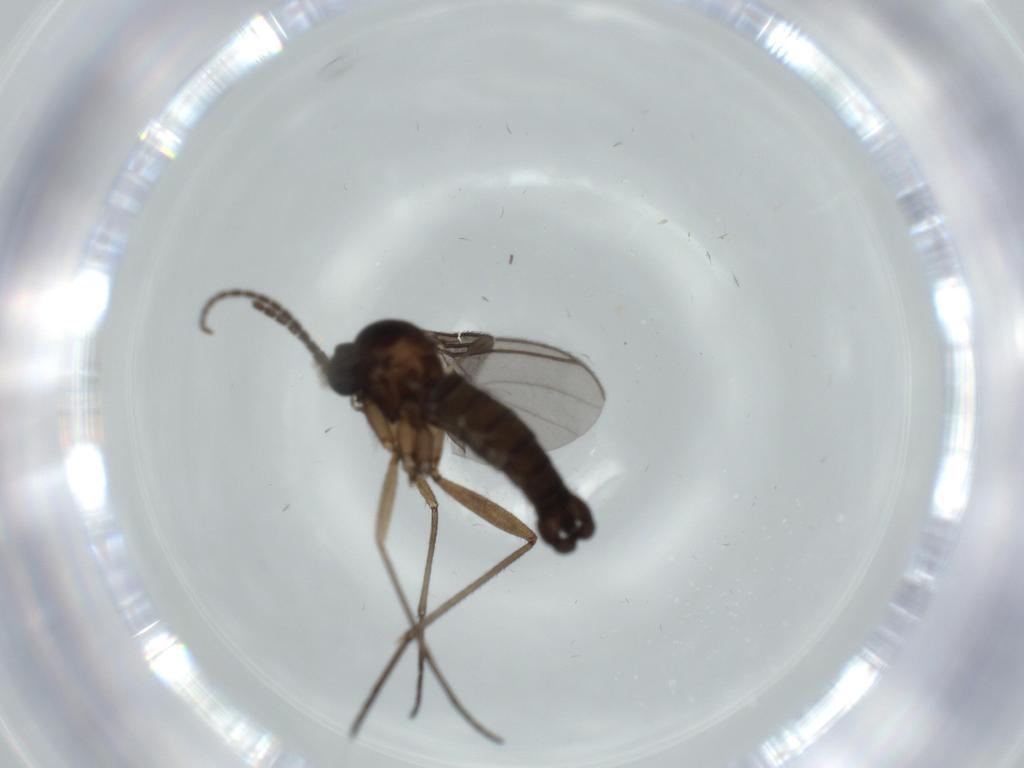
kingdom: Animalia
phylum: Arthropoda
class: Insecta
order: Diptera
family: Sciaridae
